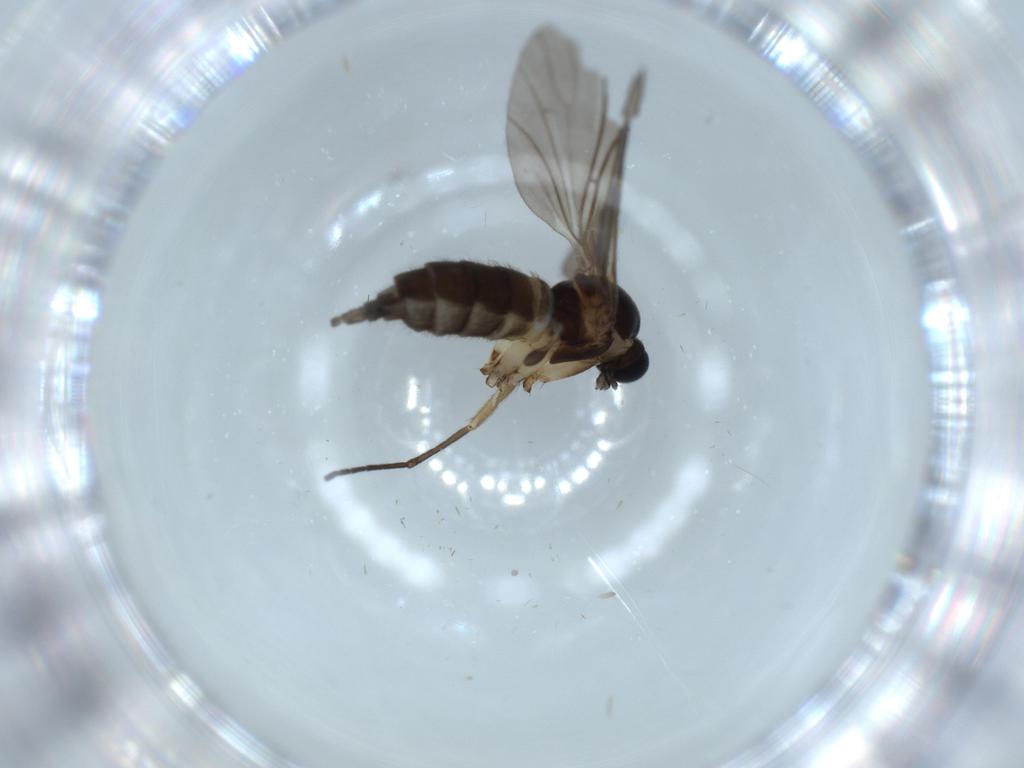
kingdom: Animalia
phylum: Arthropoda
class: Insecta
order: Diptera
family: Sciaridae
